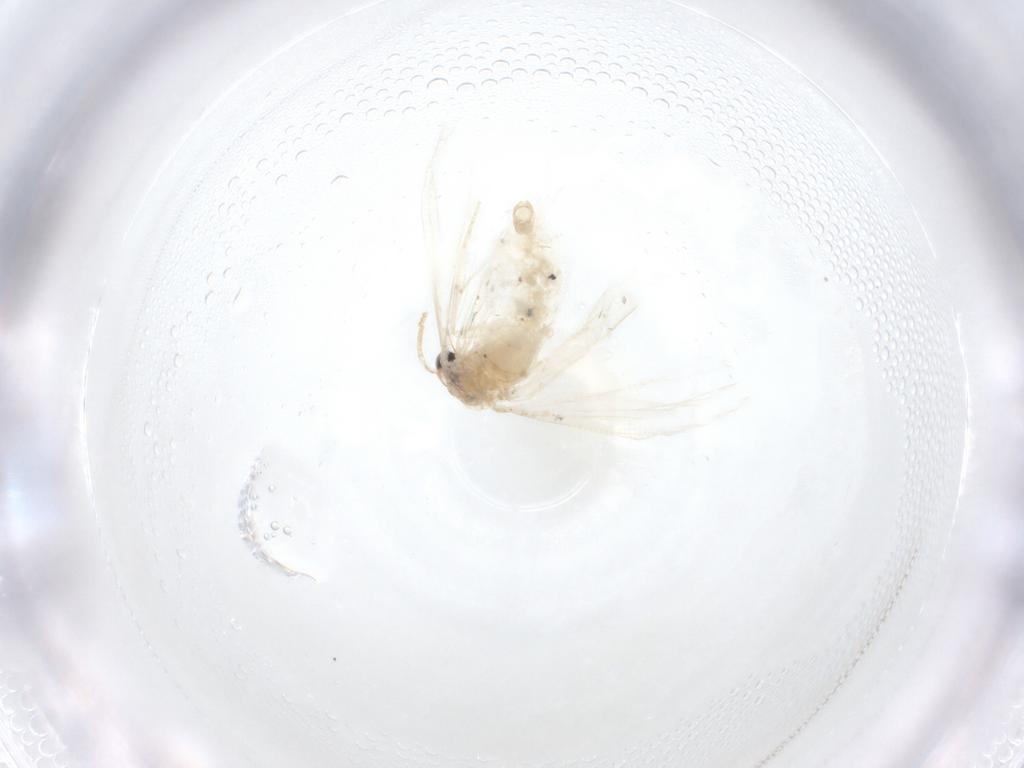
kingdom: Animalia
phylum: Arthropoda
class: Insecta
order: Lepidoptera
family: Psychidae
